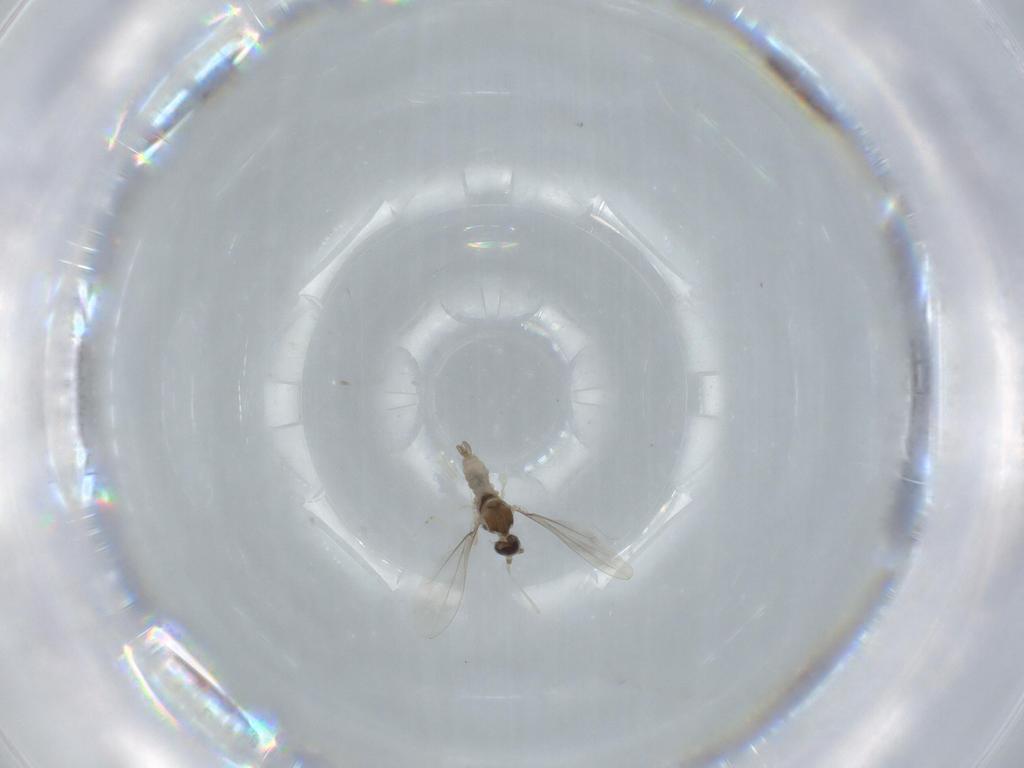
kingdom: Animalia
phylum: Arthropoda
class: Insecta
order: Diptera
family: Cecidomyiidae
